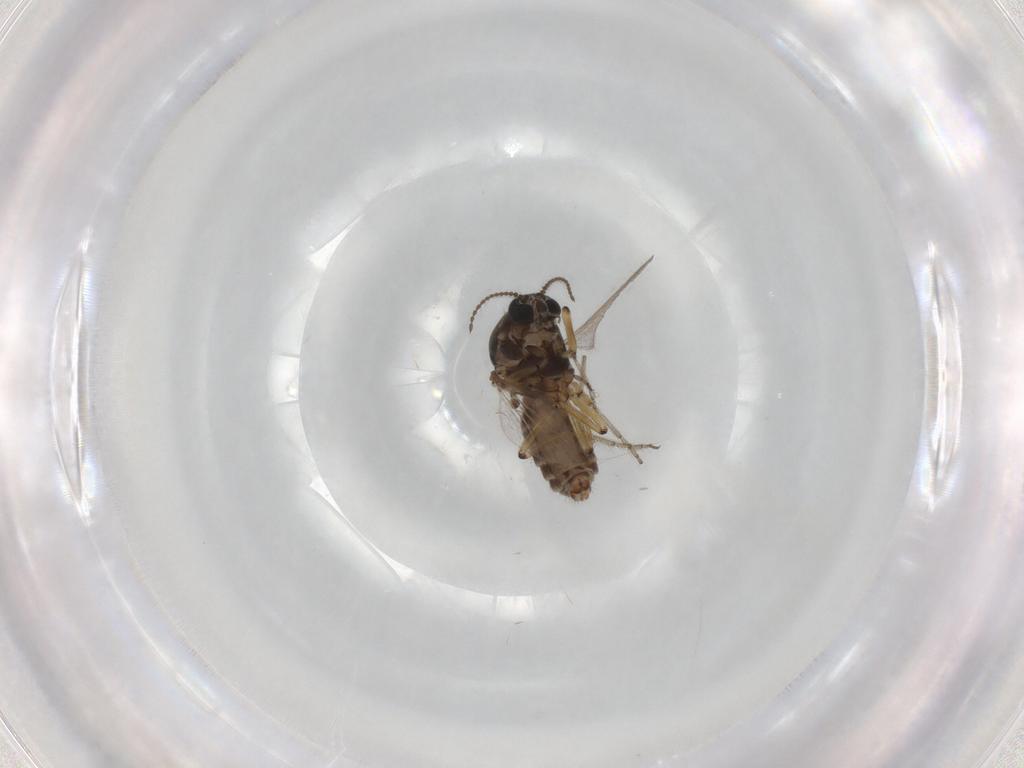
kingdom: Animalia
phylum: Arthropoda
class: Insecta
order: Diptera
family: Ceratopogonidae
